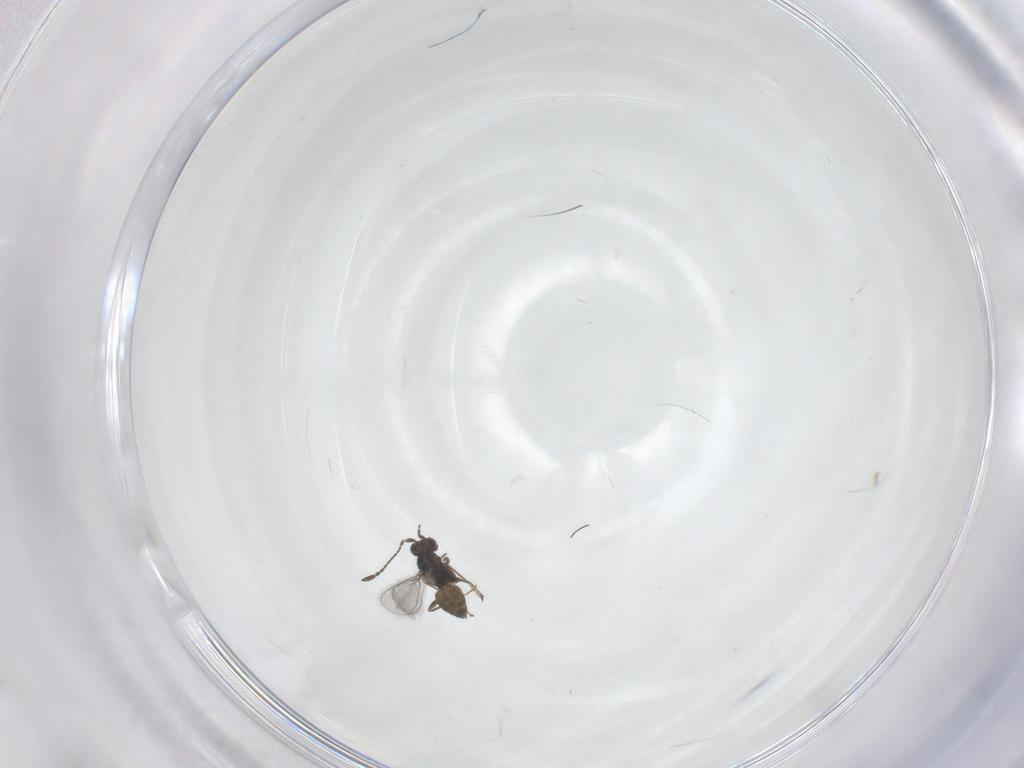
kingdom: Animalia
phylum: Arthropoda
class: Insecta
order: Hymenoptera
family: Mymaridae
